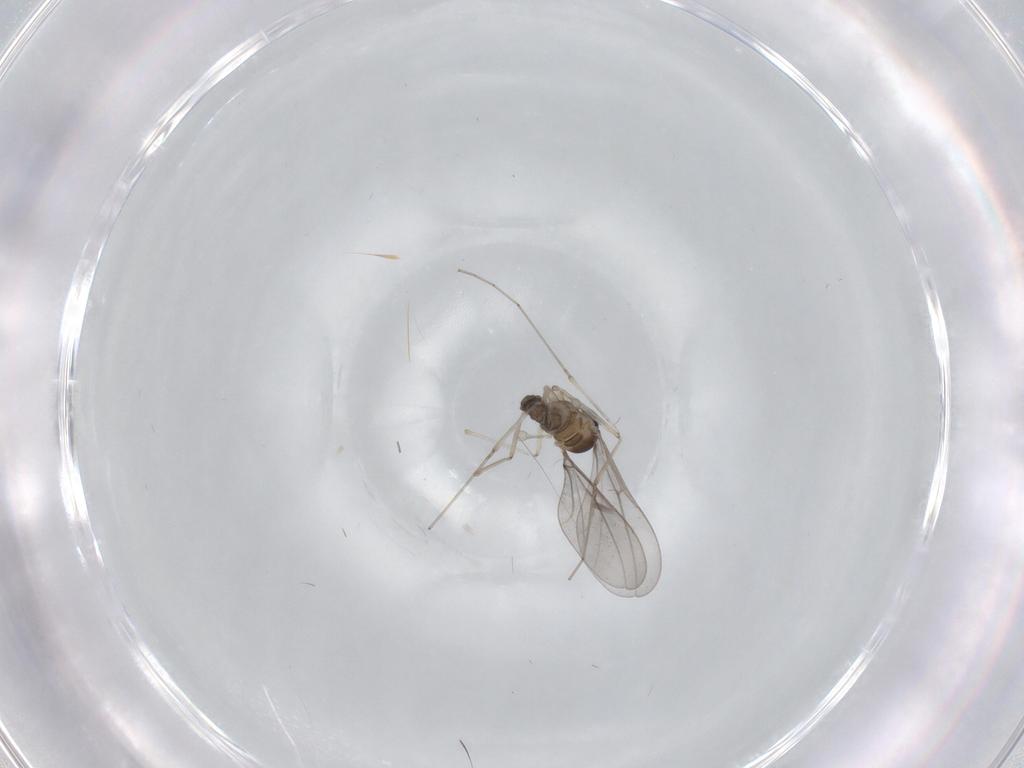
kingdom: Animalia
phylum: Arthropoda
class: Insecta
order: Diptera
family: Cecidomyiidae
